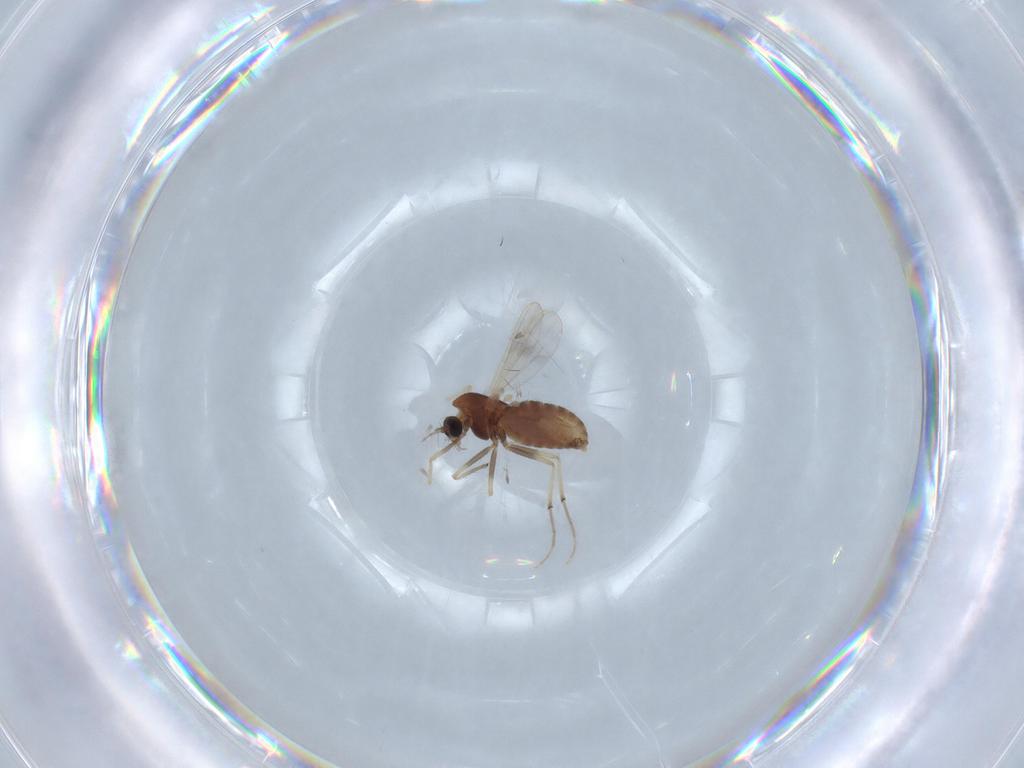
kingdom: Animalia
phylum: Arthropoda
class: Insecta
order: Diptera
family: Chironomidae
